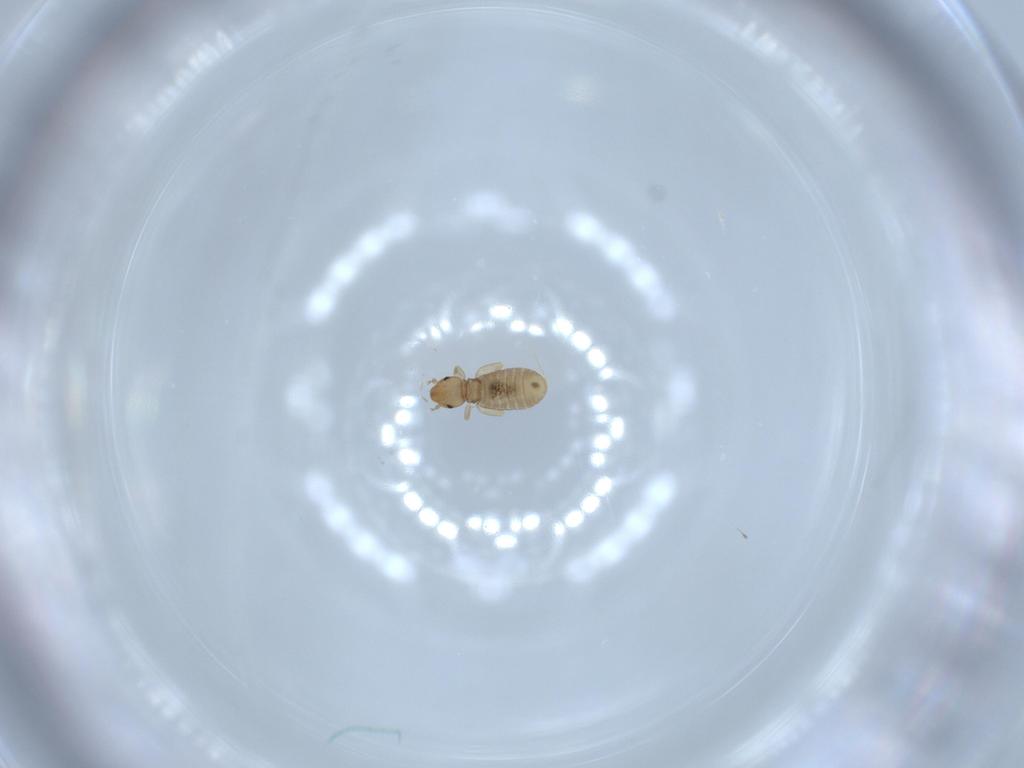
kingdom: Animalia
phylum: Arthropoda
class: Insecta
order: Psocodea
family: Liposcelididae
